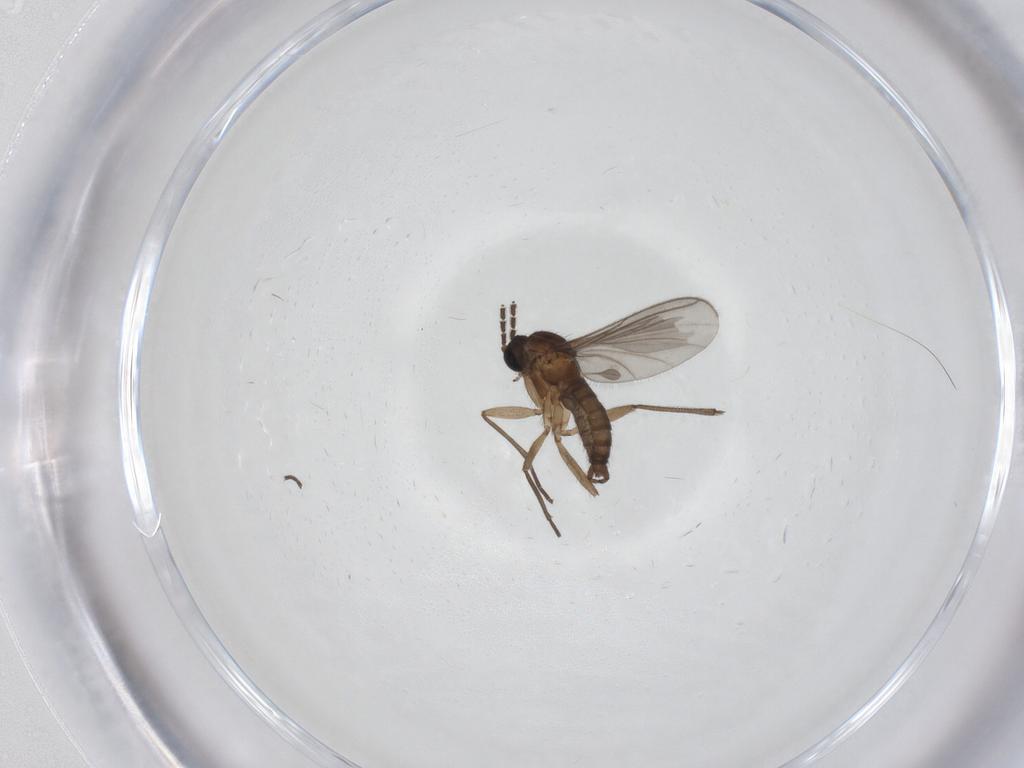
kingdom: Animalia
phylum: Arthropoda
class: Insecta
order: Diptera
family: Sciaridae
